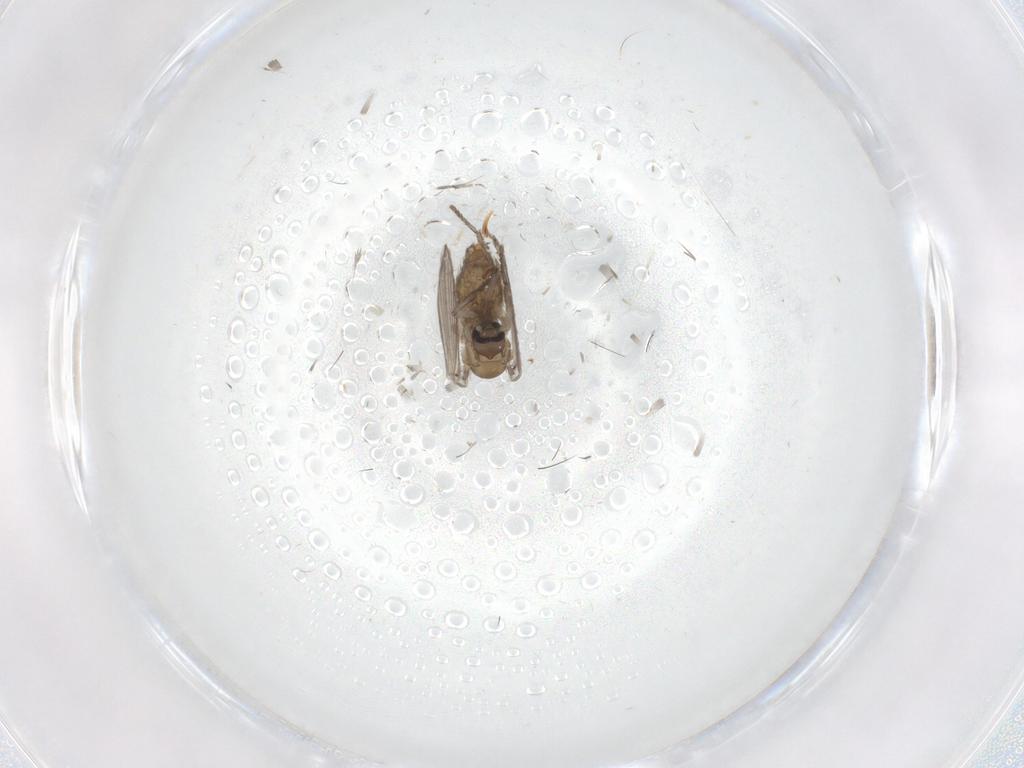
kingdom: Animalia
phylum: Arthropoda
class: Insecta
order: Diptera
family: Psychodidae
